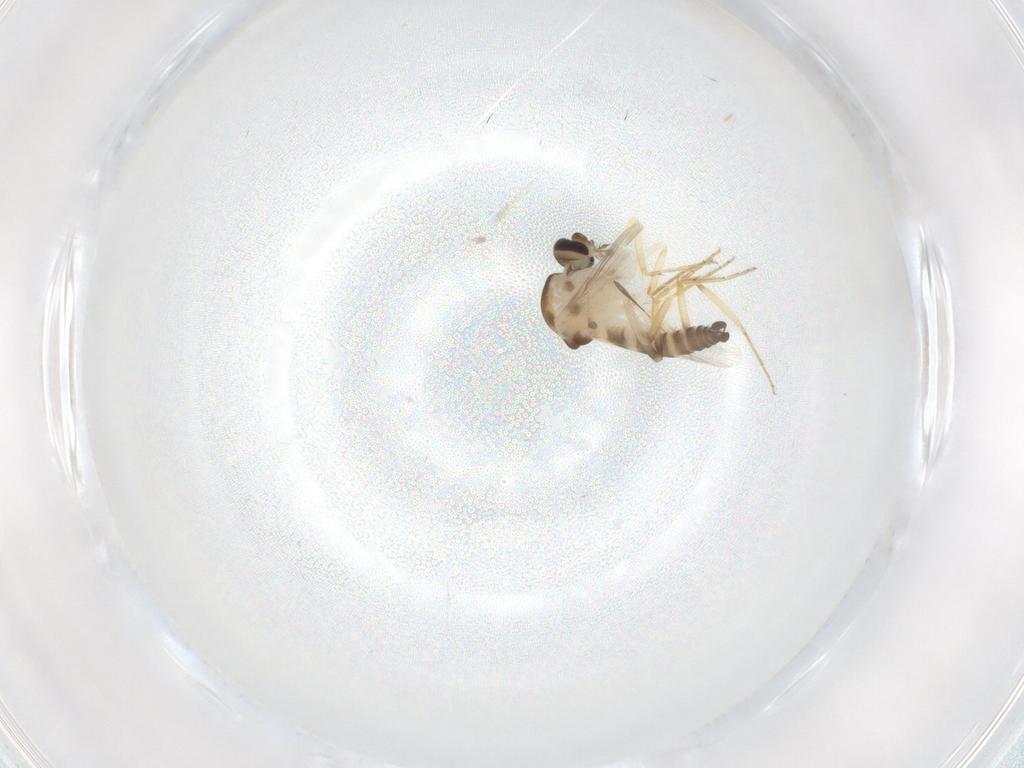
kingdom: Animalia
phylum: Arthropoda
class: Insecta
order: Diptera
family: Ceratopogonidae
